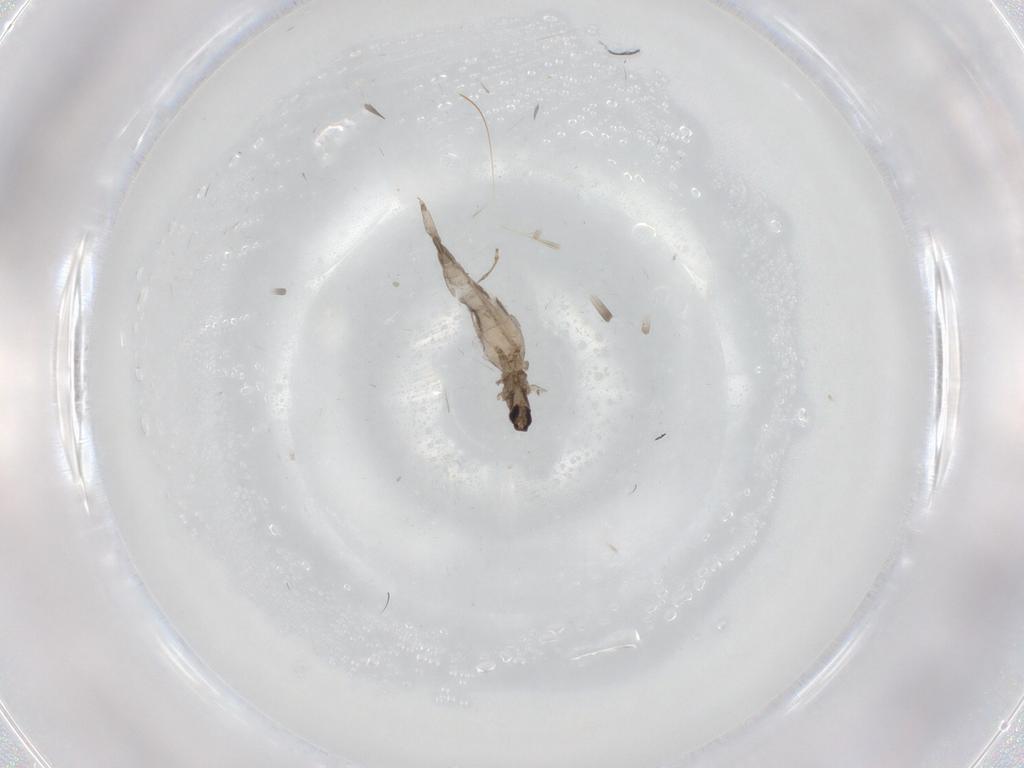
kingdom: Animalia
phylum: Arthropoda
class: Insecta
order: Diptera
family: Cecidomyiidae
